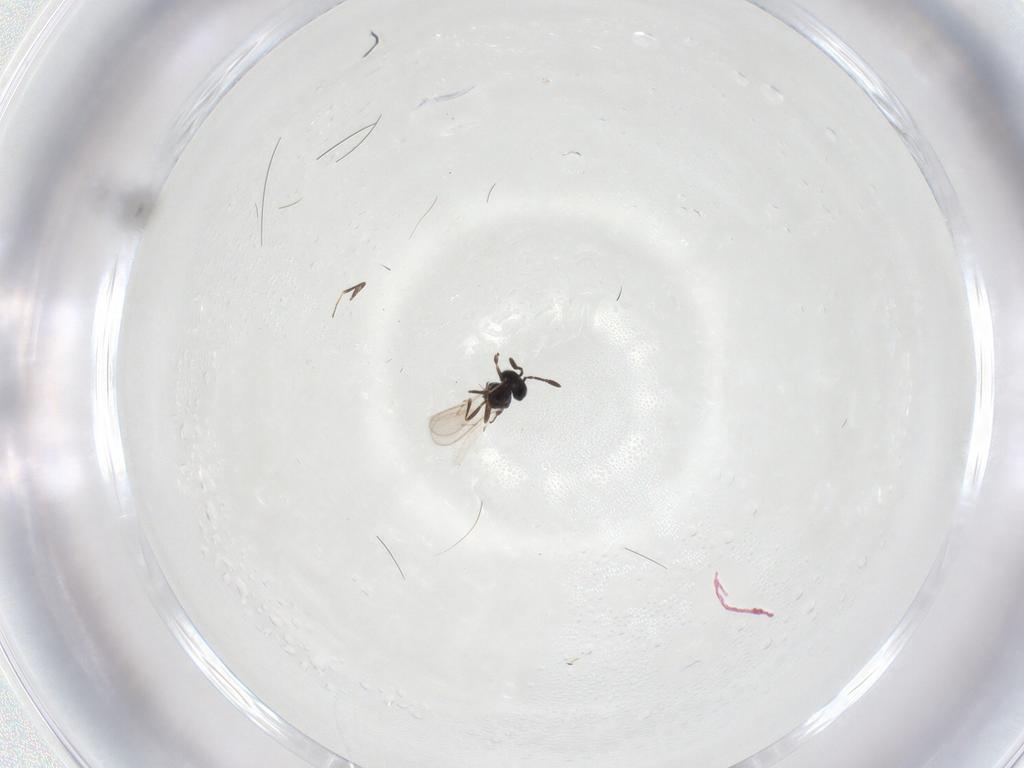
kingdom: Animalia
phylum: Arthropoda
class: Insecta
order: Hymenoptera
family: Scelionidae
